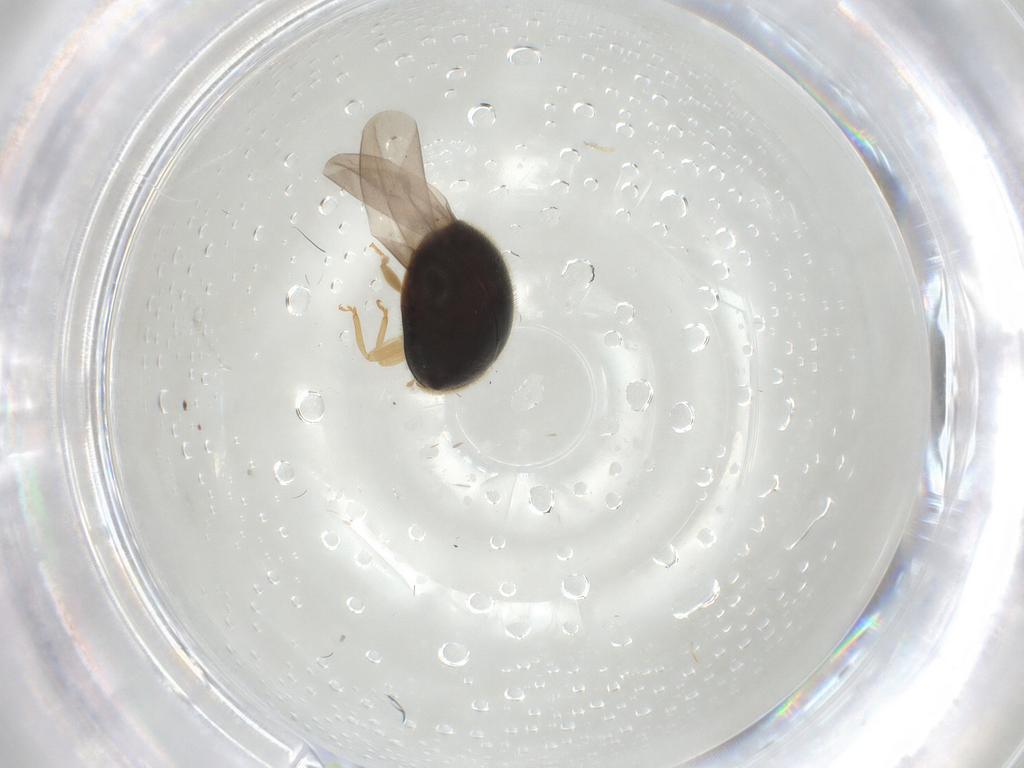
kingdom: Animalia
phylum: Arthropoda
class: Insecta
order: Coleoptera
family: Coccinellidae
